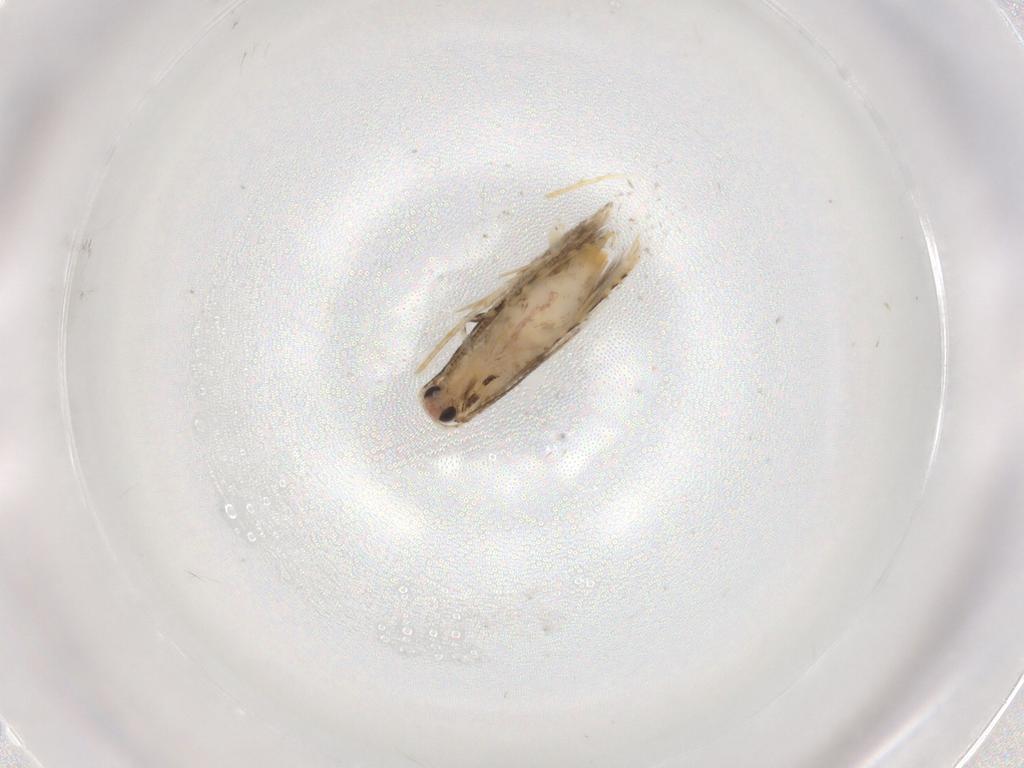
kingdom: Animalia
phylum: Arthropoda
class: Insecta
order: Lepidoptera
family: Tineidae
